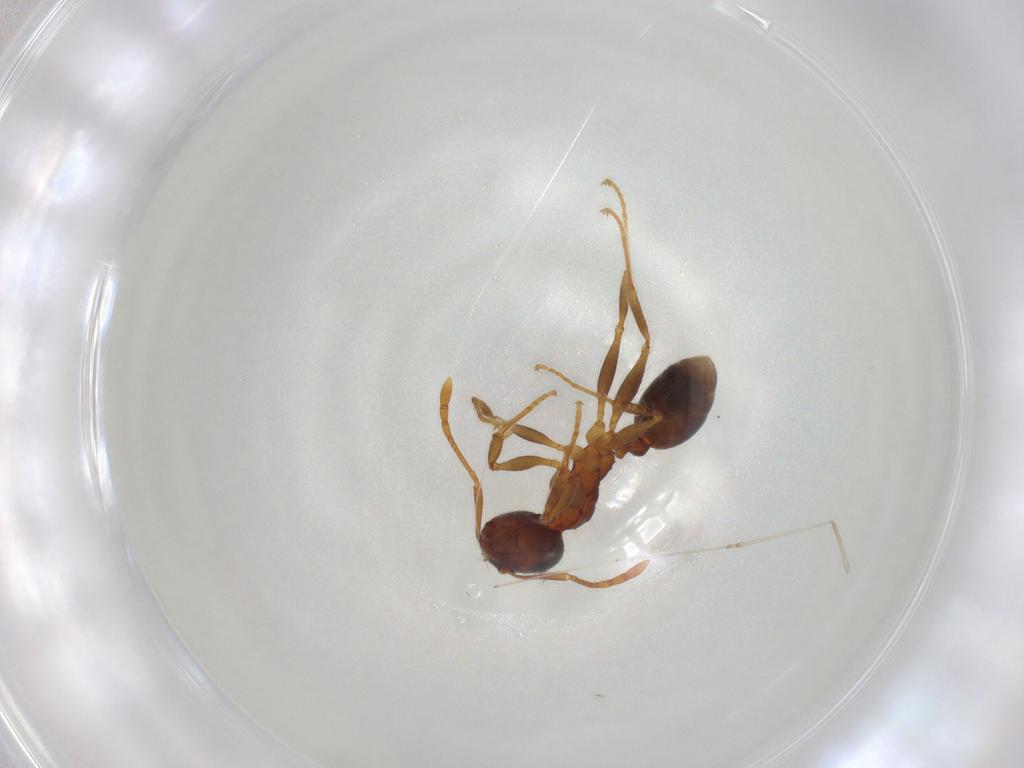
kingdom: Animalia
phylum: Arthropoda
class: Insecta
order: Hymenoptera
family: Formicidae
